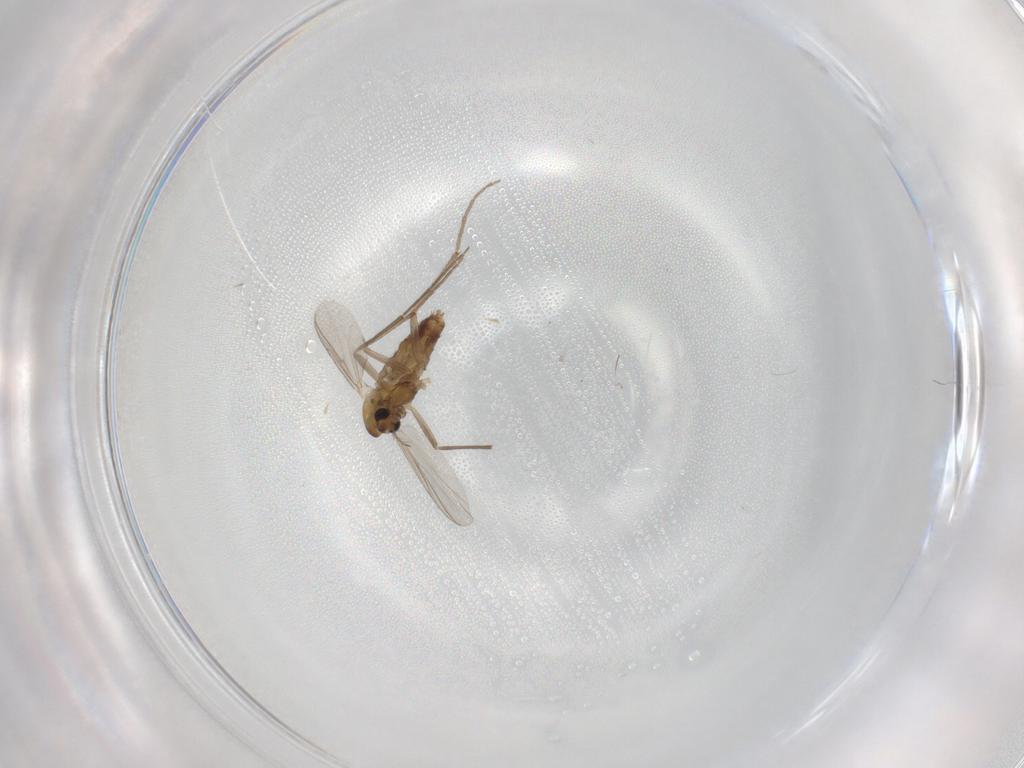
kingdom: Animalia
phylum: Arthropoda
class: Insecta
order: Diptera
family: Chironomidae
